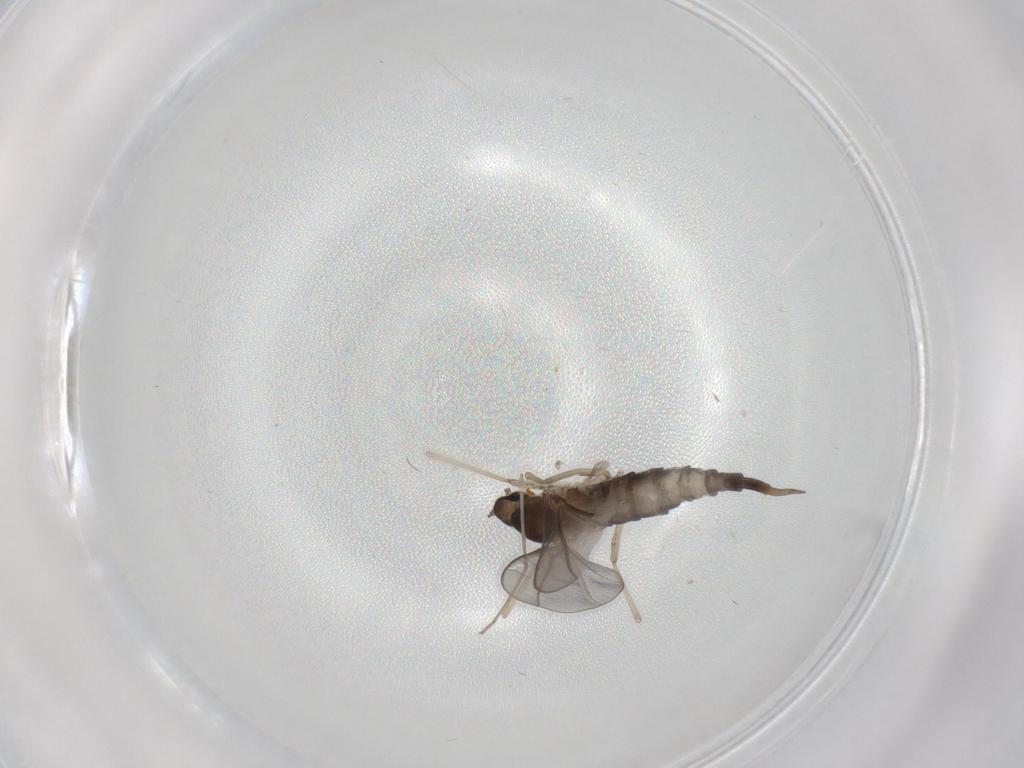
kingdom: Animalia
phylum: Arthropoda
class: Insecta
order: Diptera
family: Cecidomyiidae
